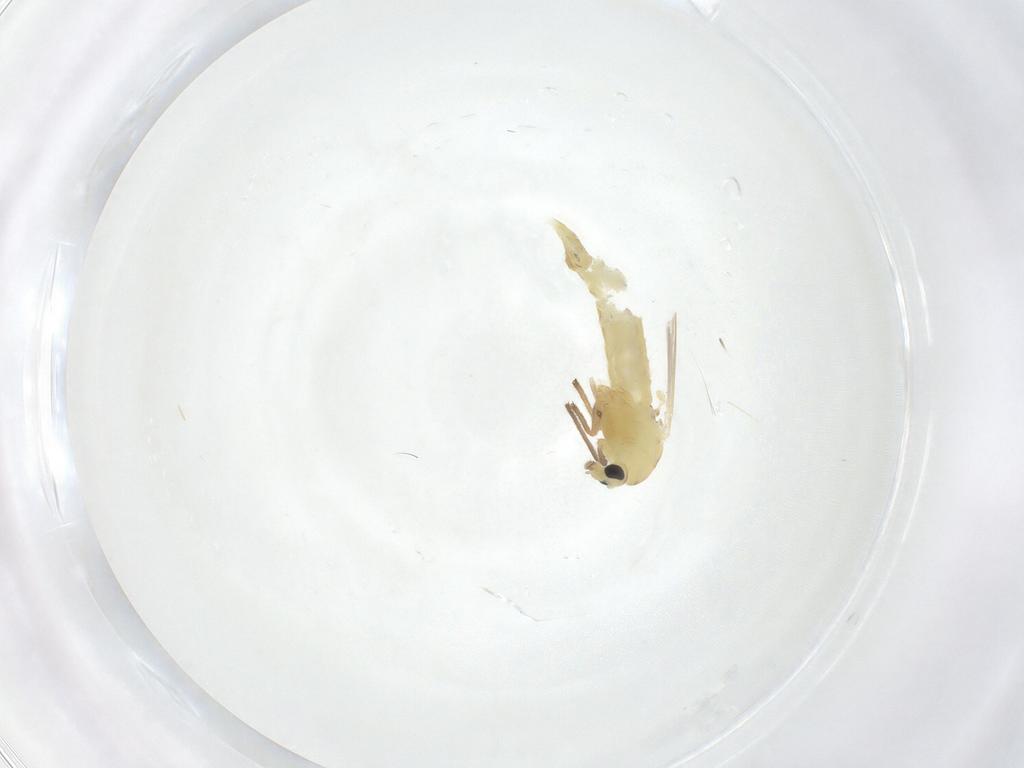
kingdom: Animalia
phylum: Arthropoda
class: Insecta
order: Diptera
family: Chironomidae
